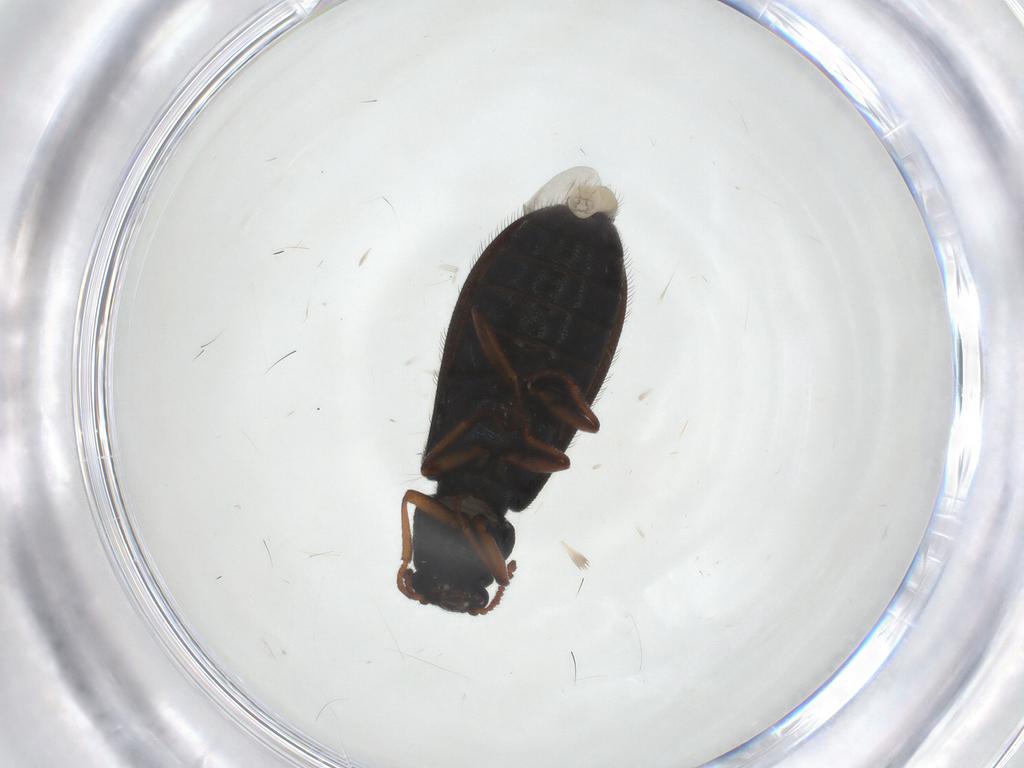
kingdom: Animalia
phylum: Arthropoda
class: Insecta
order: Coleoptera
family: Melyridae
